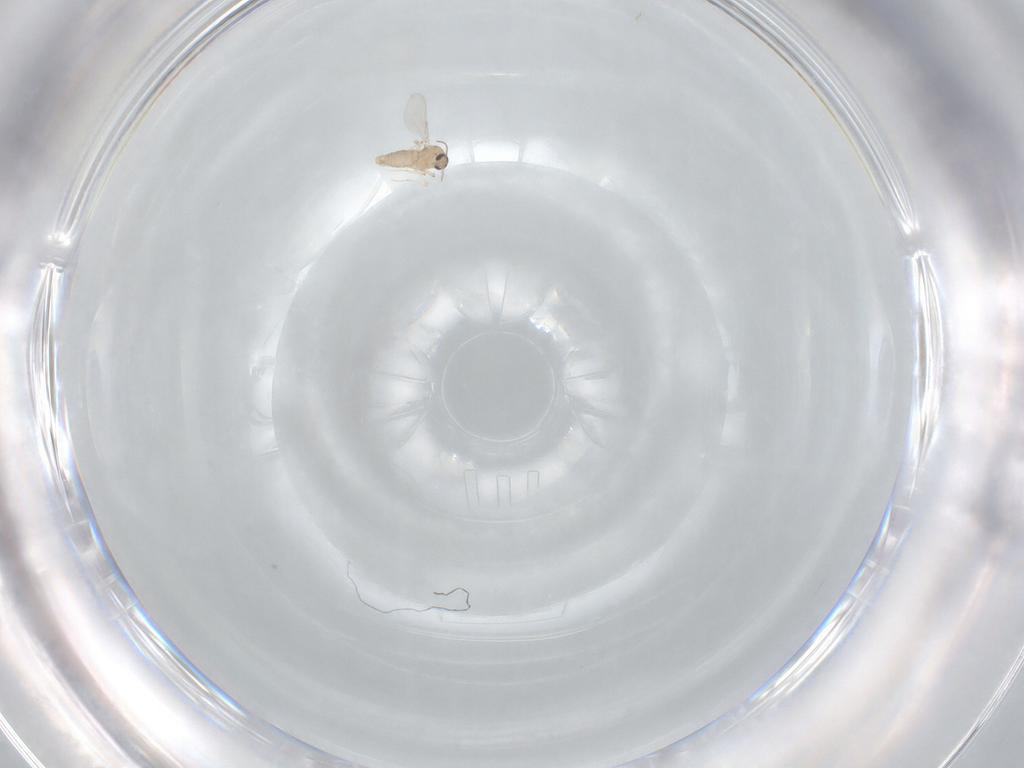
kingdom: Animalia
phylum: Arthropoda
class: Insecta
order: Diptera
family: Ceratopogonidae
